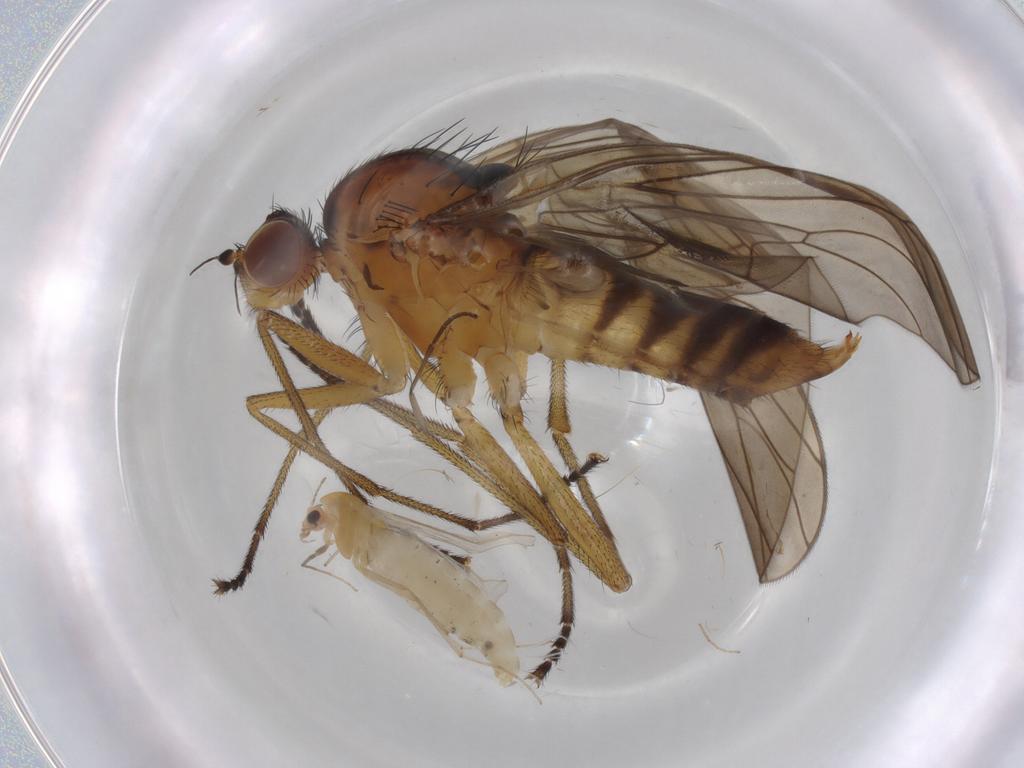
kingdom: Animalia
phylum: Arthropoda
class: Insecta
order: Diptera
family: Brachystomatidae
